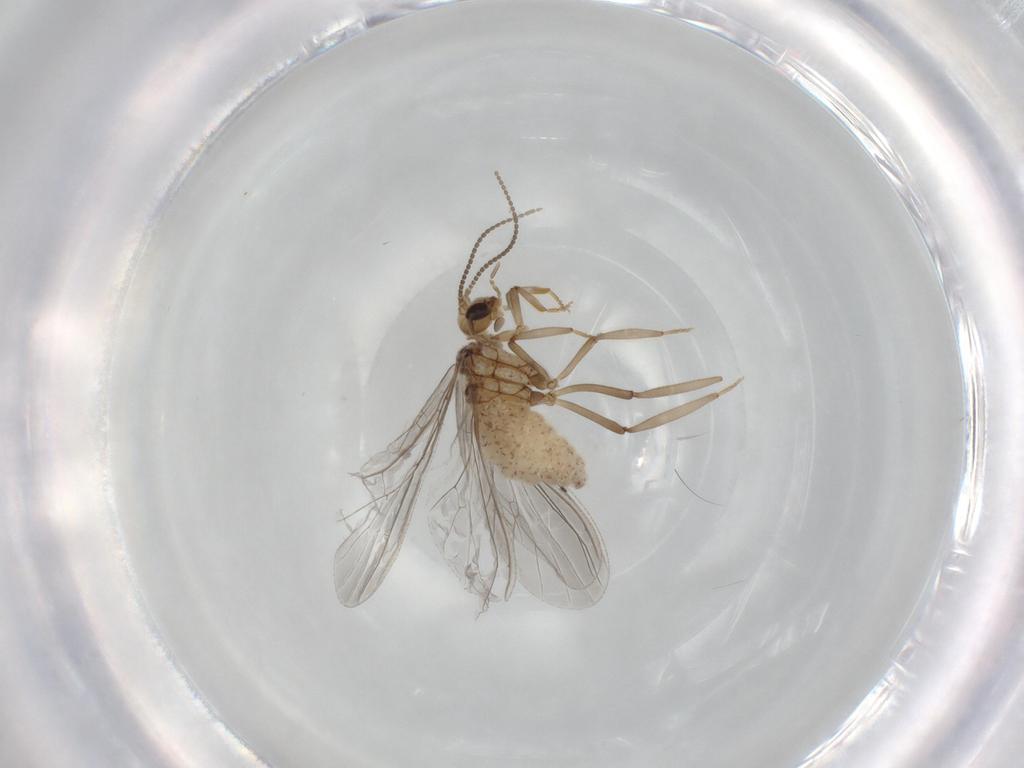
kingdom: Animalia
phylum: Arthropoda
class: Insecta
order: Neuroptera
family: Coniopterygidae
